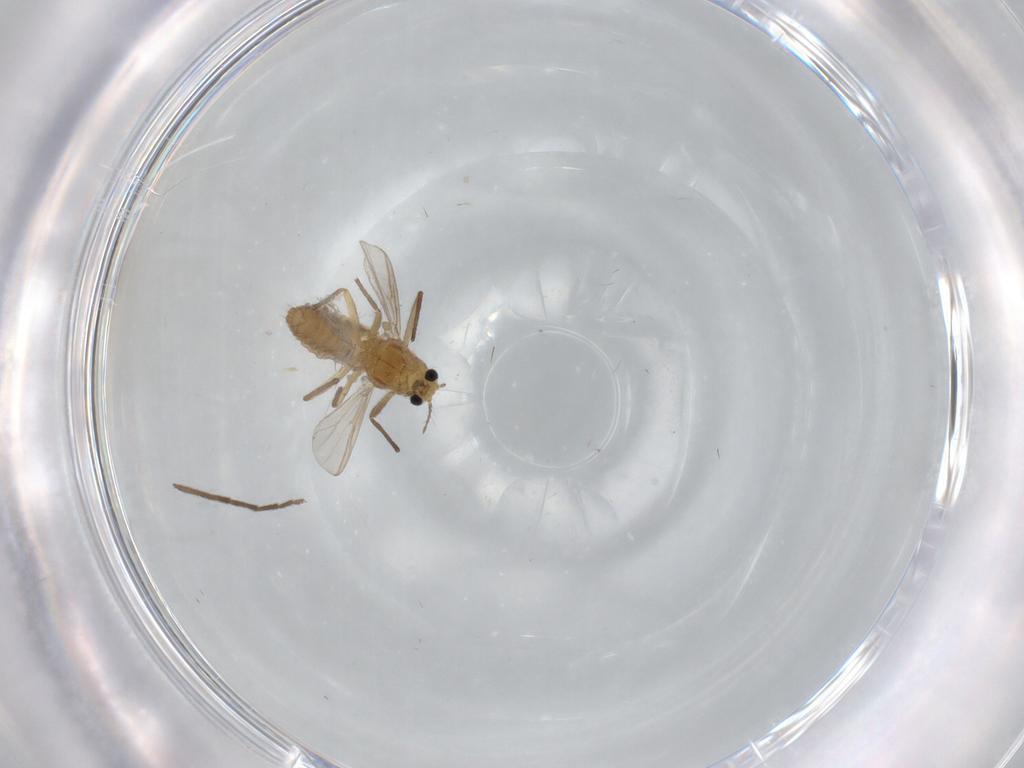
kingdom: Animalia
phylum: Arthropoda
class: Insecta
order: Diptera
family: Chironomidae
